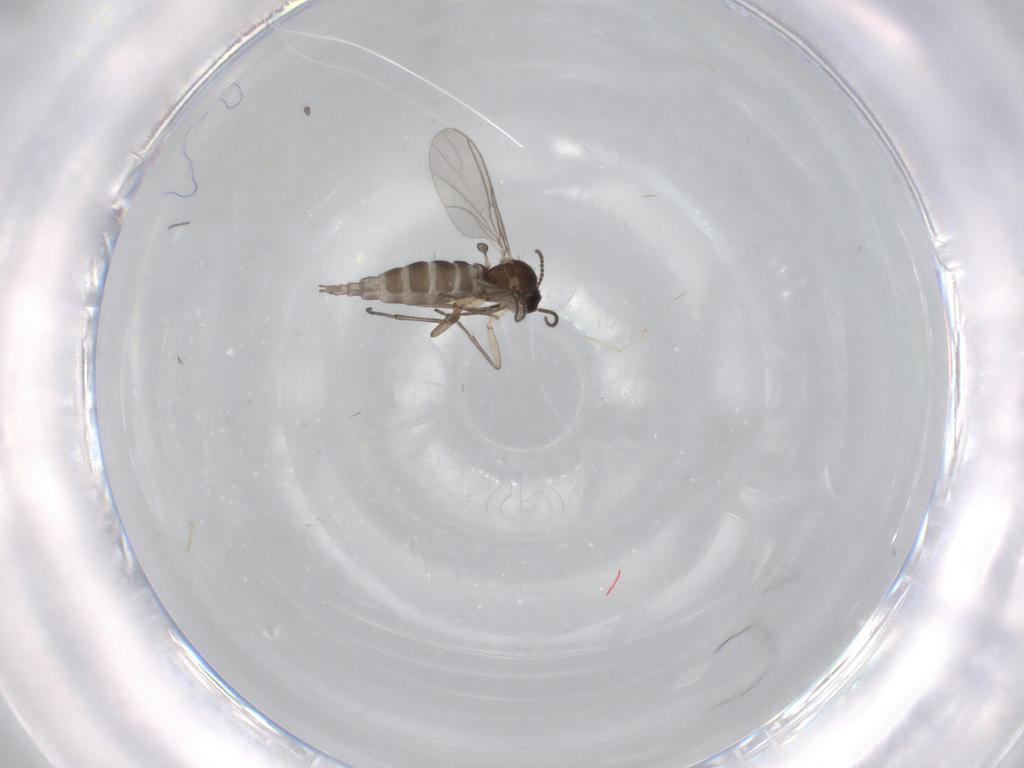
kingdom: Animalia
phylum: Arthropoda
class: Insecta
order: Diptera
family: Sciaridae
